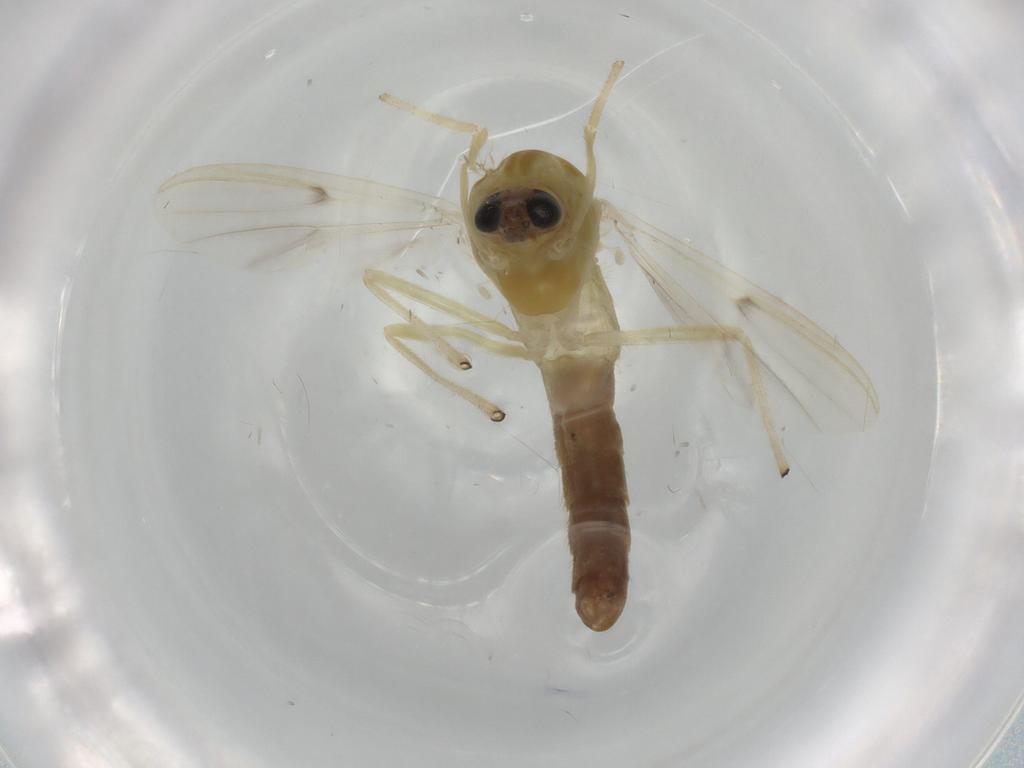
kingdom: Animalia
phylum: Arthropoda
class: Insecta
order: Diptera
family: Chironomidae
